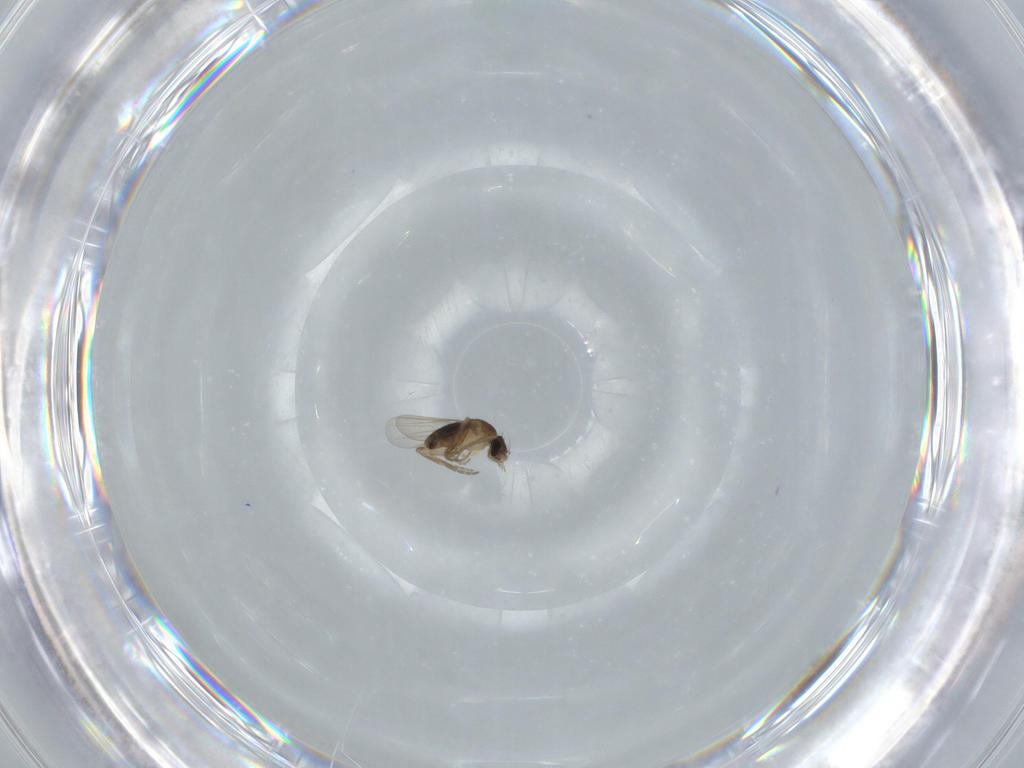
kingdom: Animalia
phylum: Arthropoda
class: Insecta
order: Diptera
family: Phoridae
